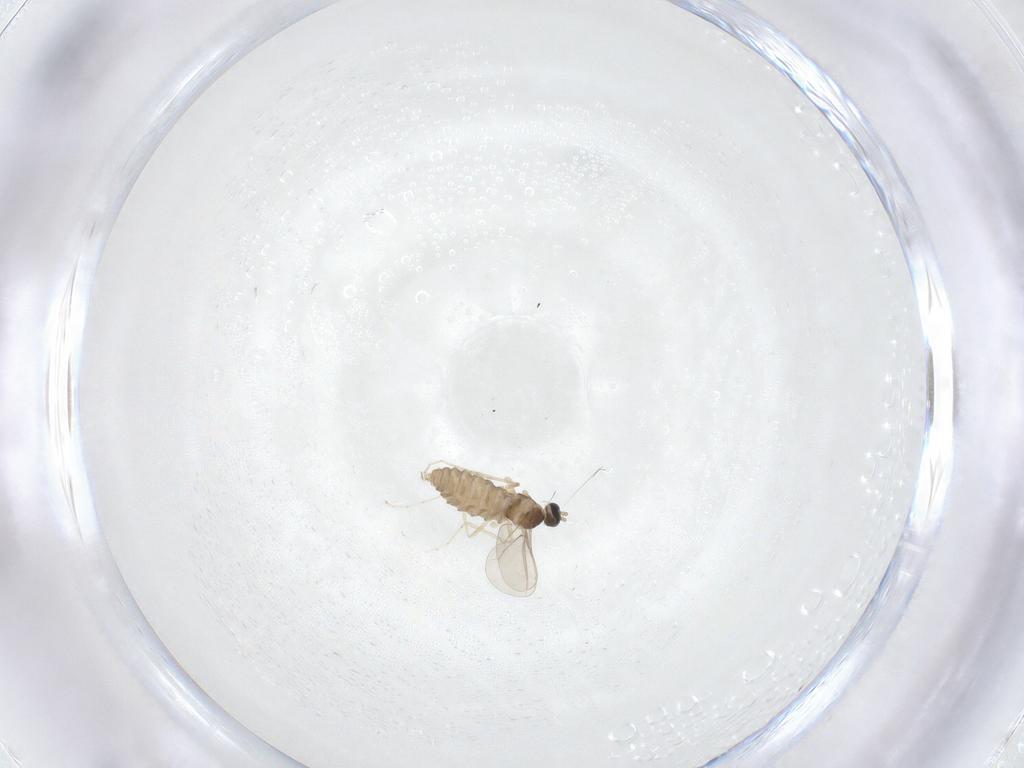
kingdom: Animalia
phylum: Arthropoda
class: Insecta
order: Diptera
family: Cecidomyiidae
